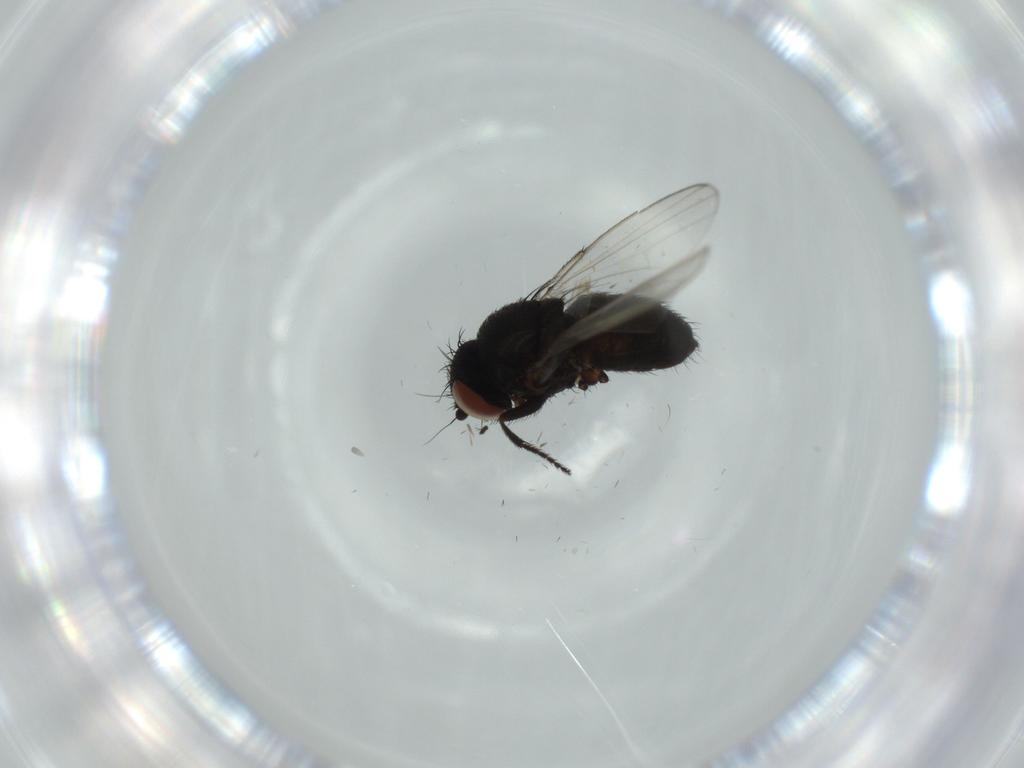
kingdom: Animalia
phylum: Arthropoda
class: Insecta
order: Diptera
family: Milichiidae
